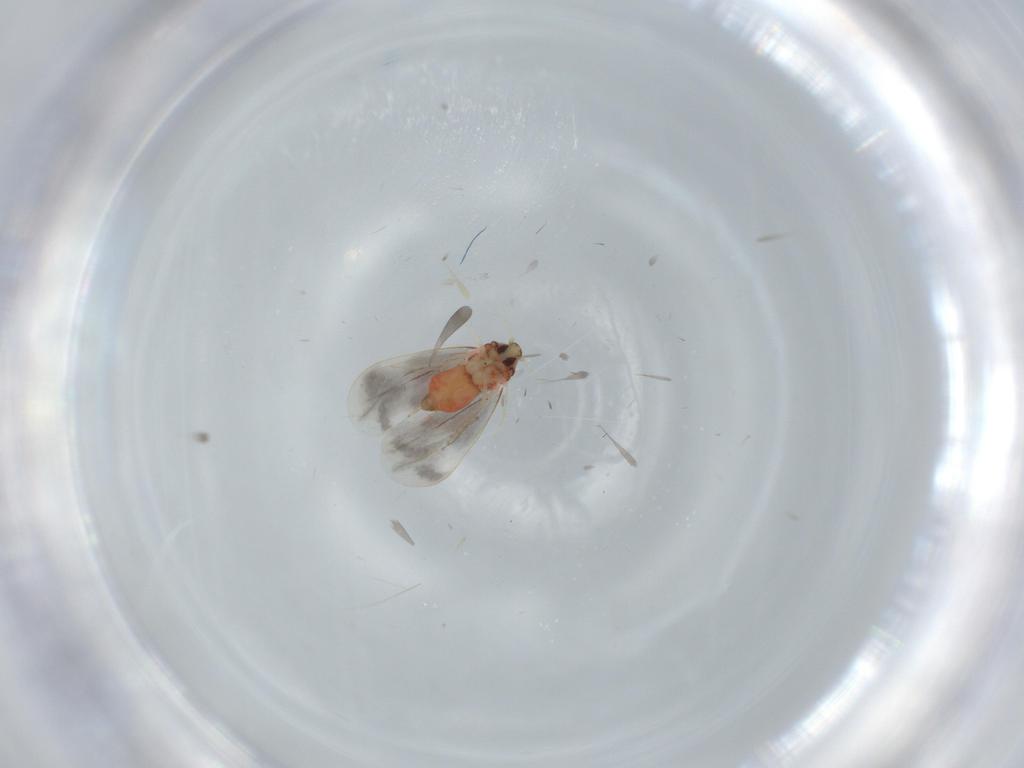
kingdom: Animalia
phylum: Arthropoda
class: Insecta
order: Hemiptera
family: Aleyrodidae
